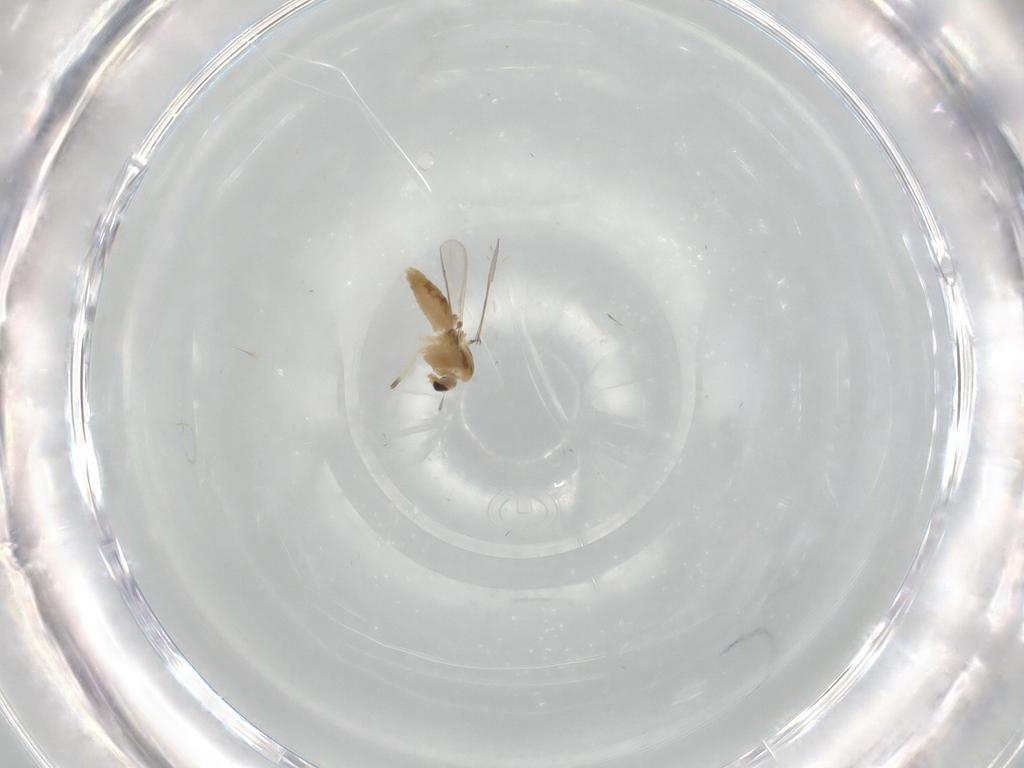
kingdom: Animalia
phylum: Arthropoda
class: Insecta
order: Diptera
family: Chironomidae
